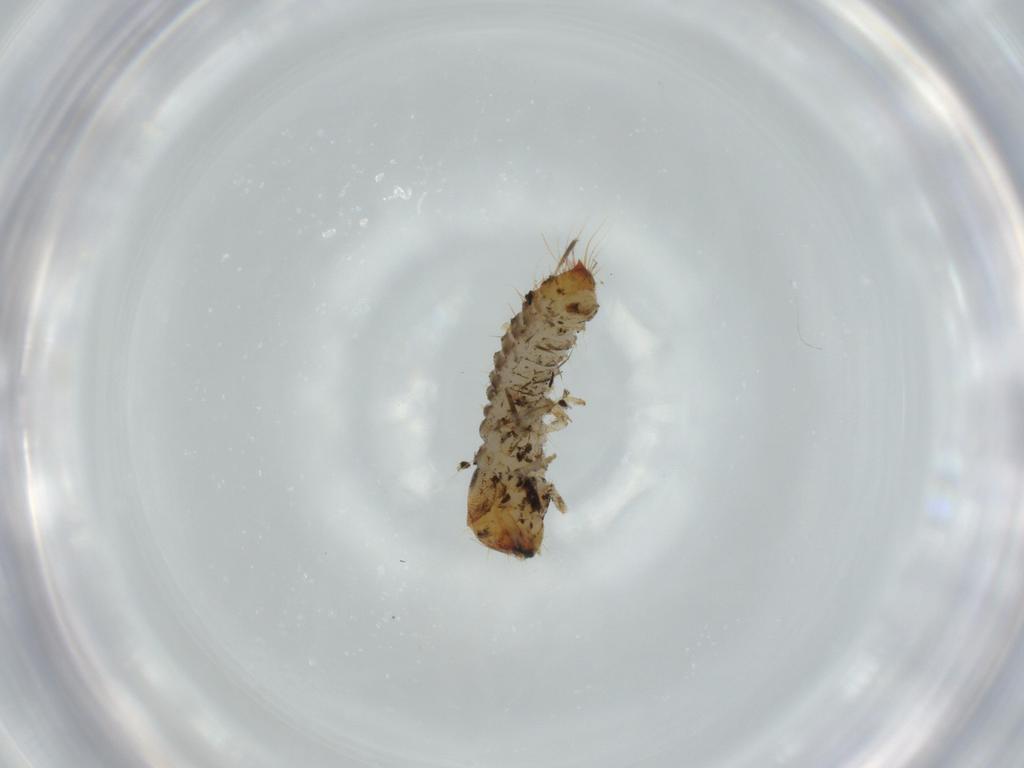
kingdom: Animalia
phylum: Arthropoda
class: Insecta
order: Coleoptera
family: Lymexylidae
